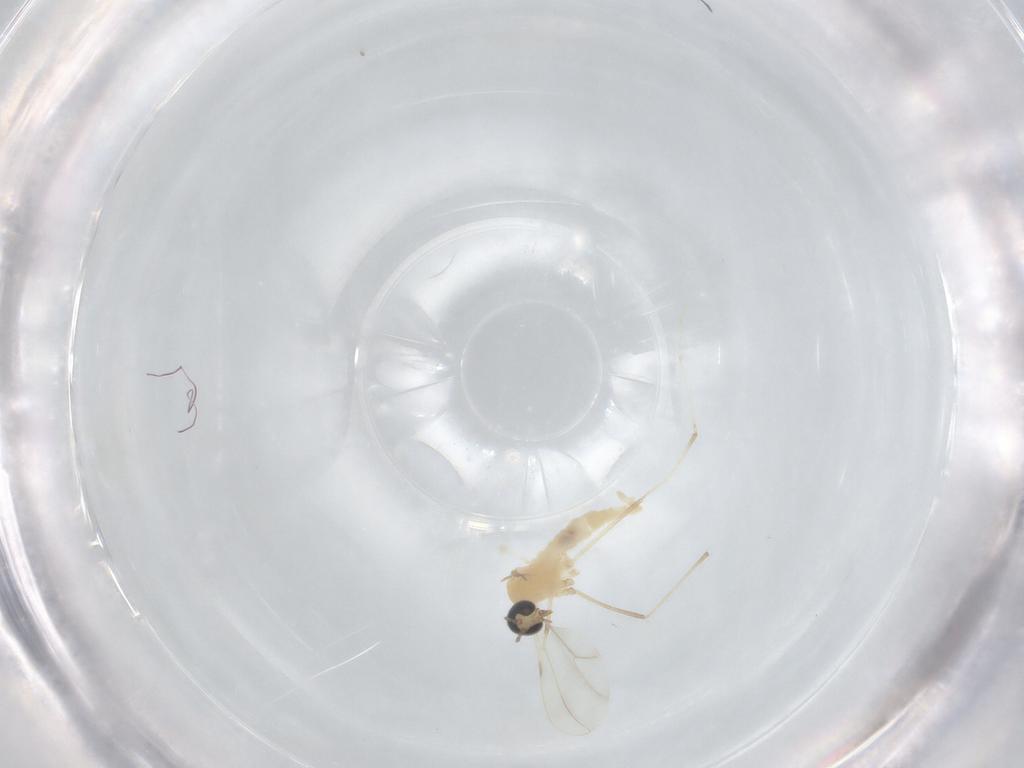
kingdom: Animalia
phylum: Arthropoda
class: Insecta
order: Diptera
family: Cecidomyiidae
